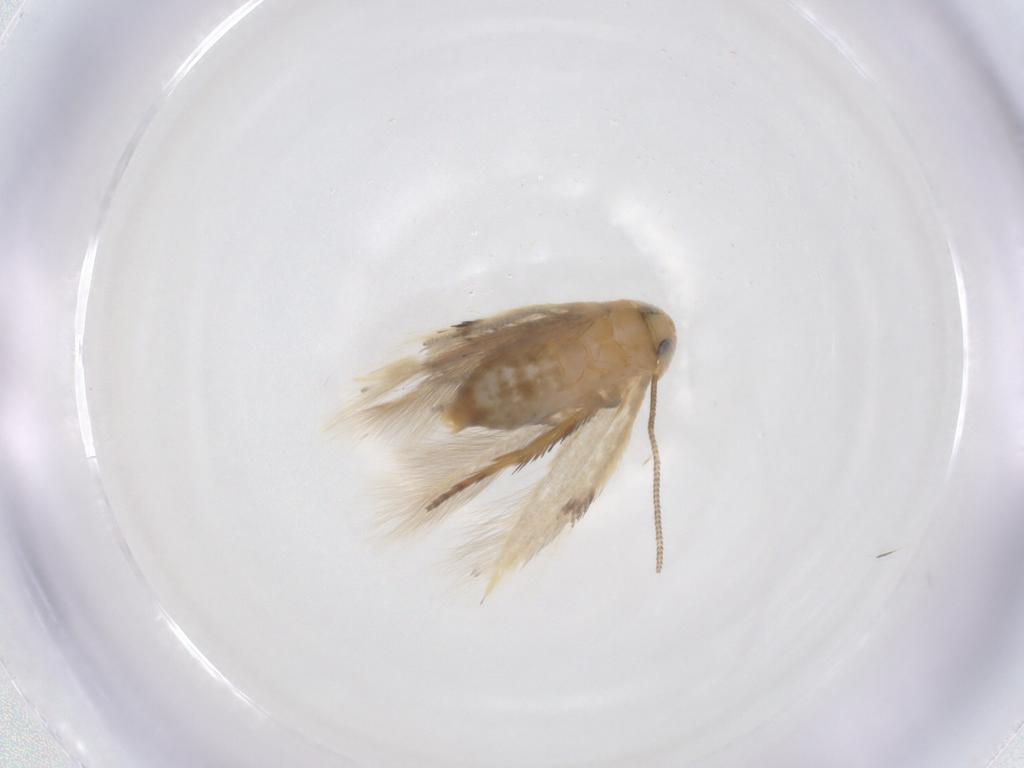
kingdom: Animalia
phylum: Arthropoda
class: Insecta
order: Lepidoptera
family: Opostegidae
